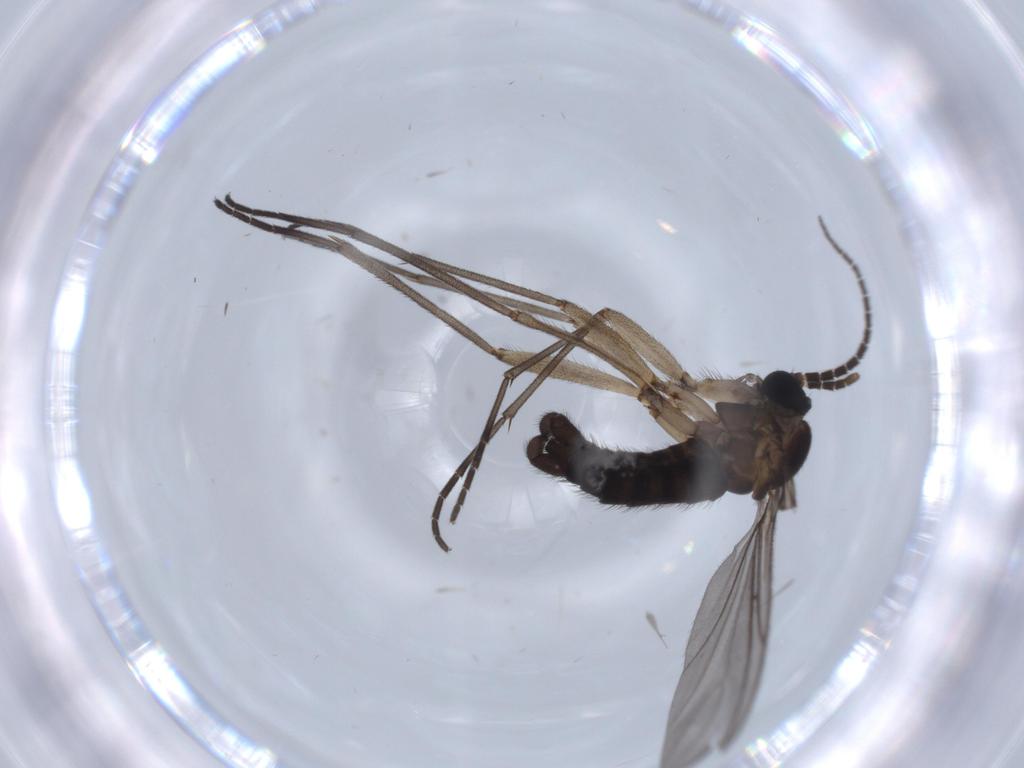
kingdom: Animalia
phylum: Arthropoda
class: Insecta
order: Diptera
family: Sciaridae
